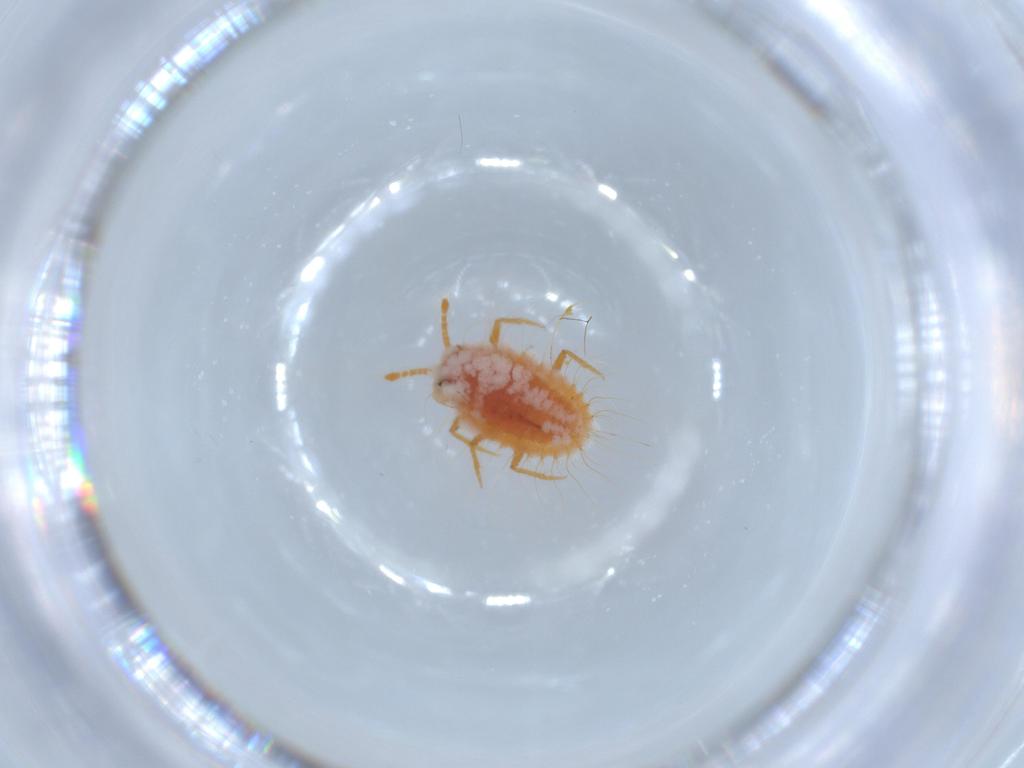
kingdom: Animalia
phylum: Arthropoda
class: Insecta
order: Hemiptera
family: Coccoidea_incertae_sedis
